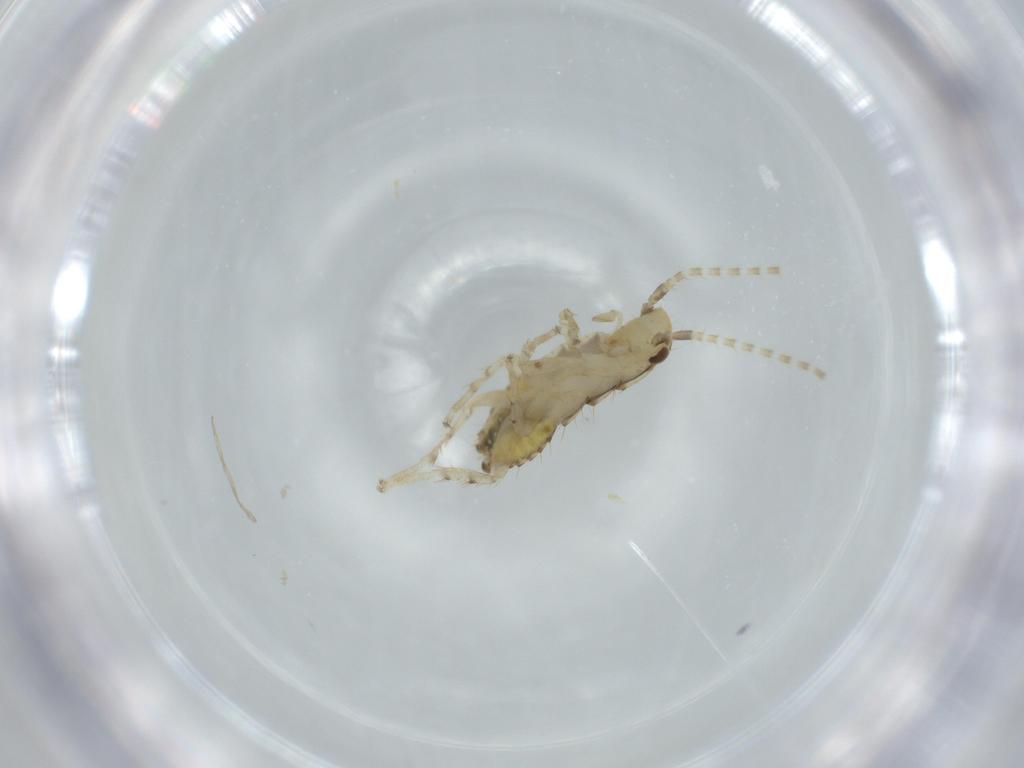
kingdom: Animalia
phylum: Arthropoda
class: Insecta
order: Blattodea
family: Ectobiidae
